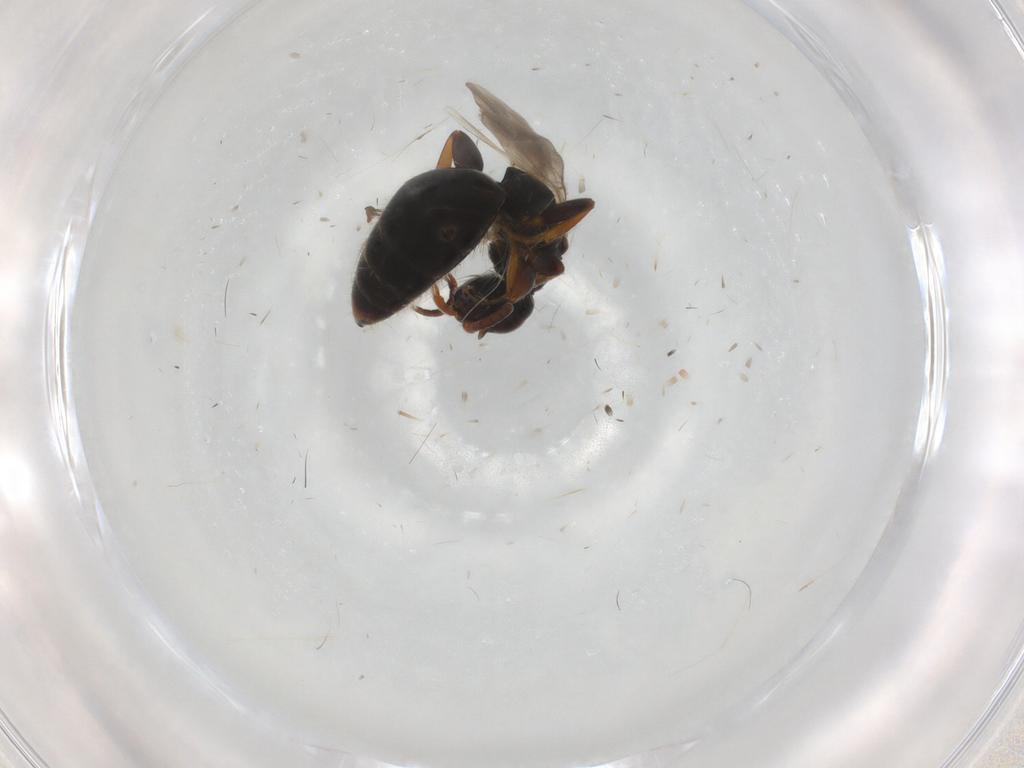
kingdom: Animalia
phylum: Arthropoda
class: Insecta
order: Hymenoptera
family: Bethylidae
